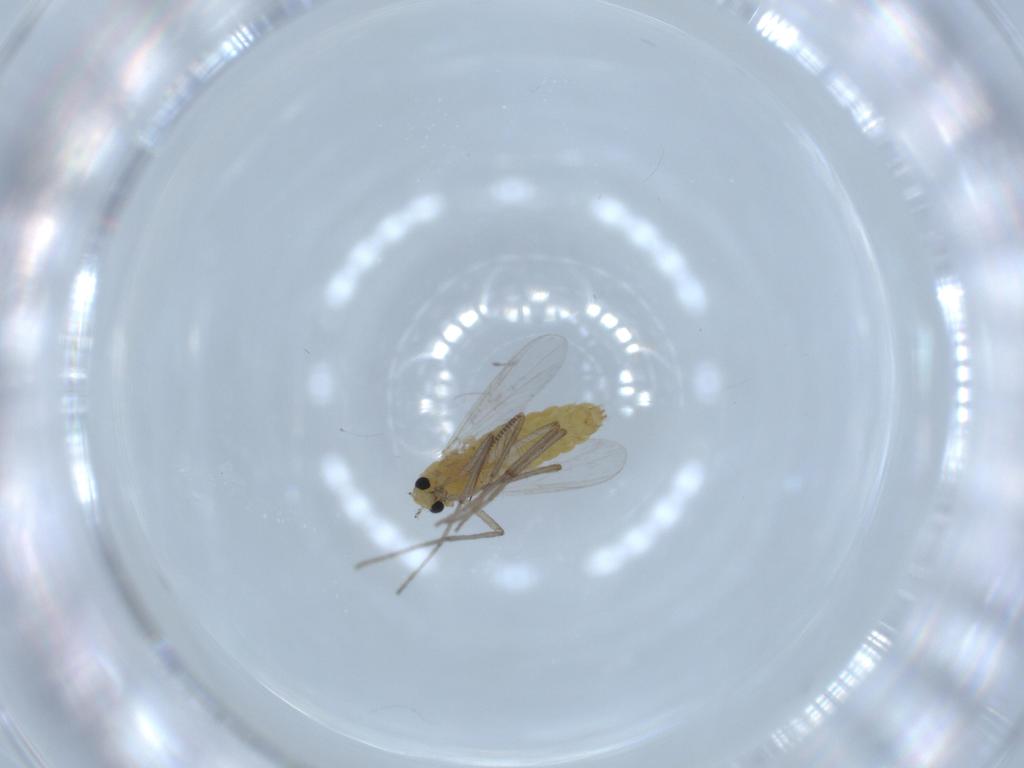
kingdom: Animalia
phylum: Arthropoda
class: Insecta
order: Diptera
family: Chironomidae
